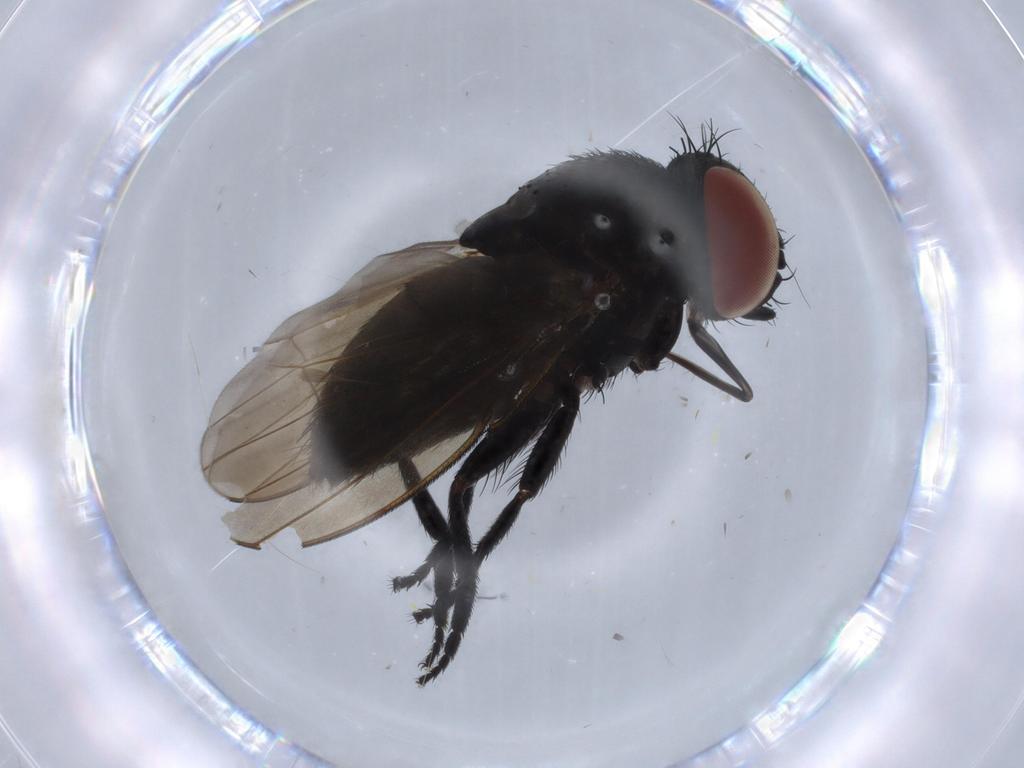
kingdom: Animalia
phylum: Arthropoda
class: Insecta
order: Diptera
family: Milichiidae
